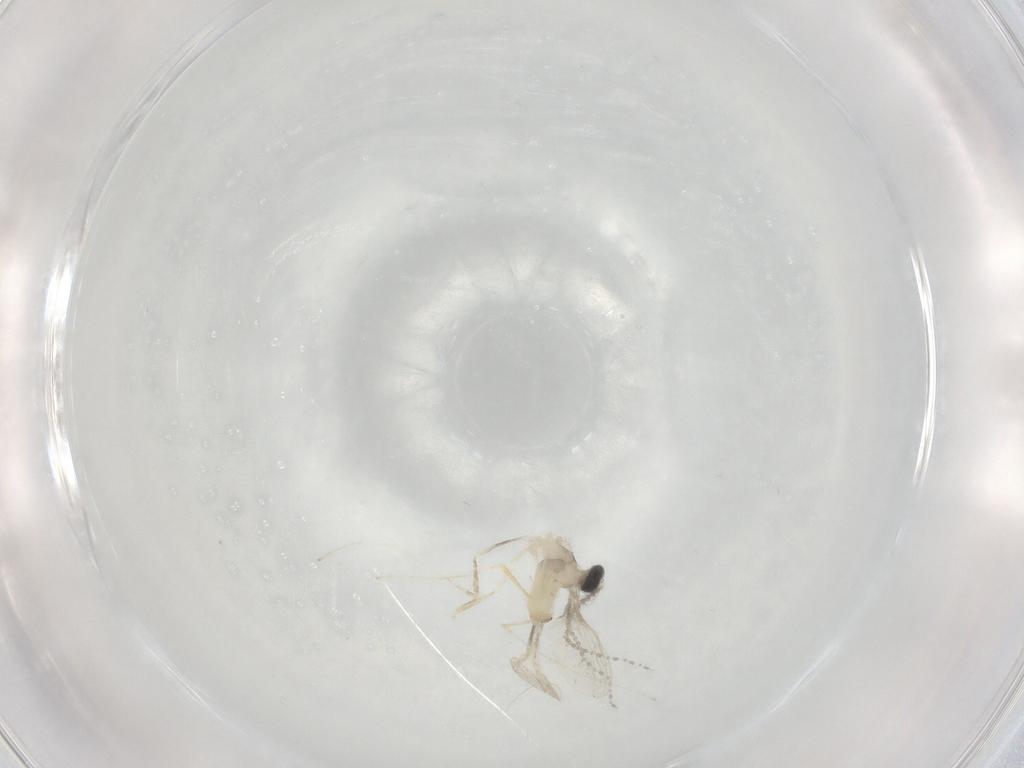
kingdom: Animalia
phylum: Arthropoda
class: Insecta
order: Diptera
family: Cecidomyiidae
